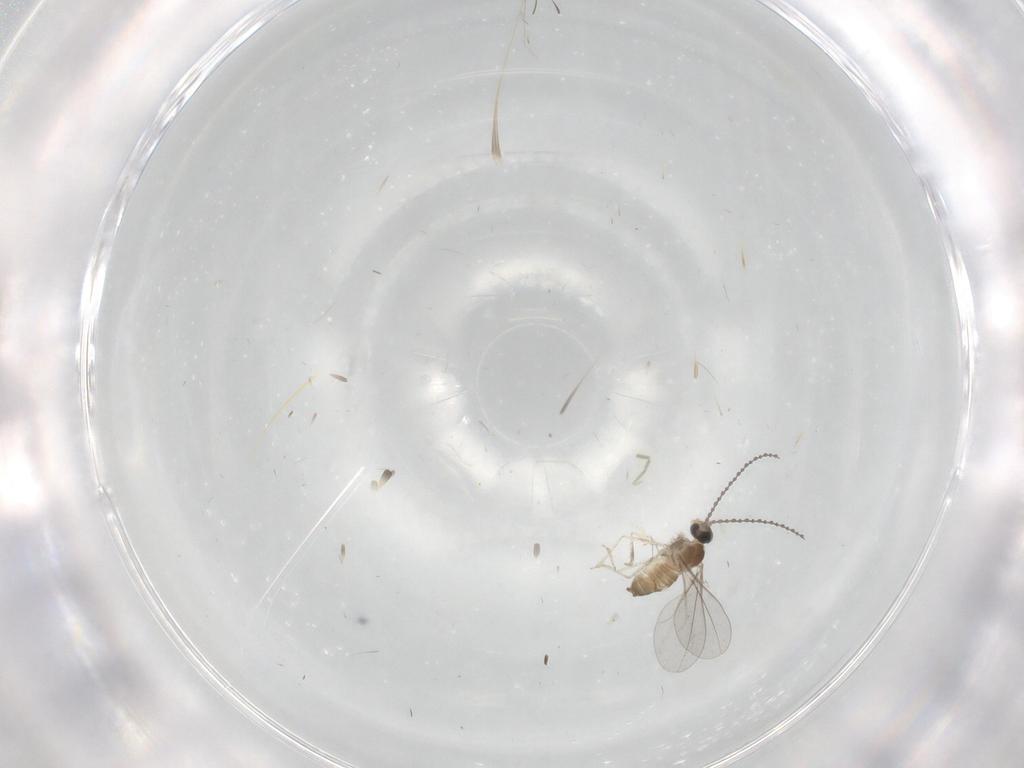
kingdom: Animalia
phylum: Arthropoda
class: Insecta
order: Diptera
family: Cecidomyiidae
